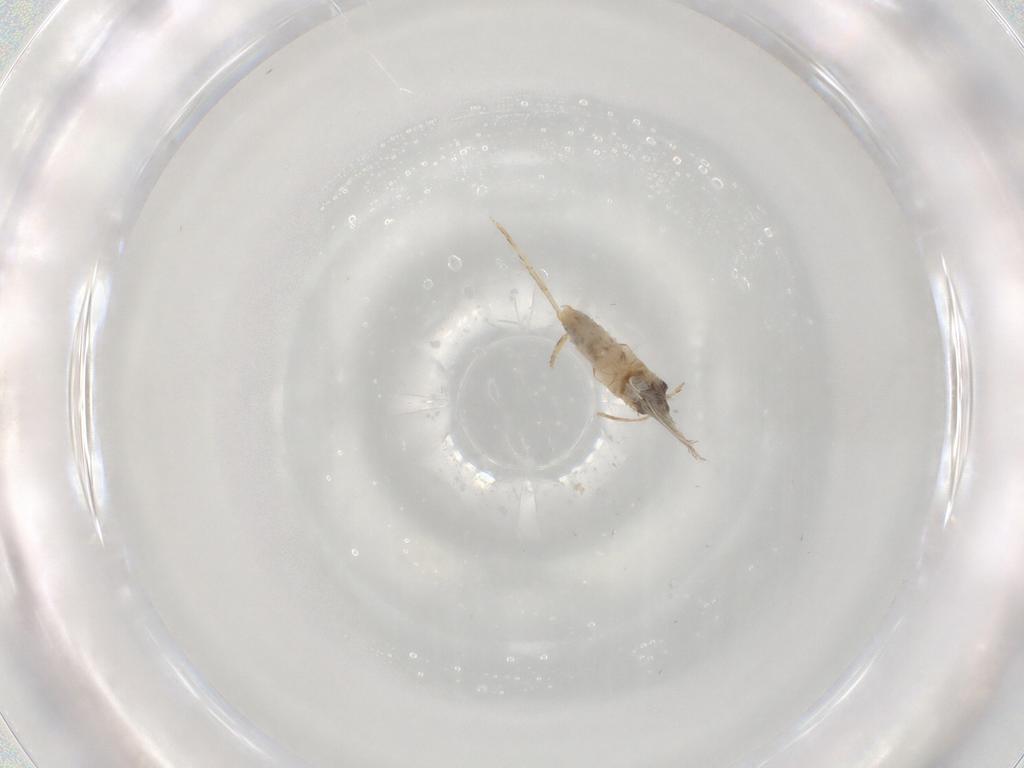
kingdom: Animalia
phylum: Arthropoda
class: Insecta
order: Lepidoptera
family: Nepticulidae
